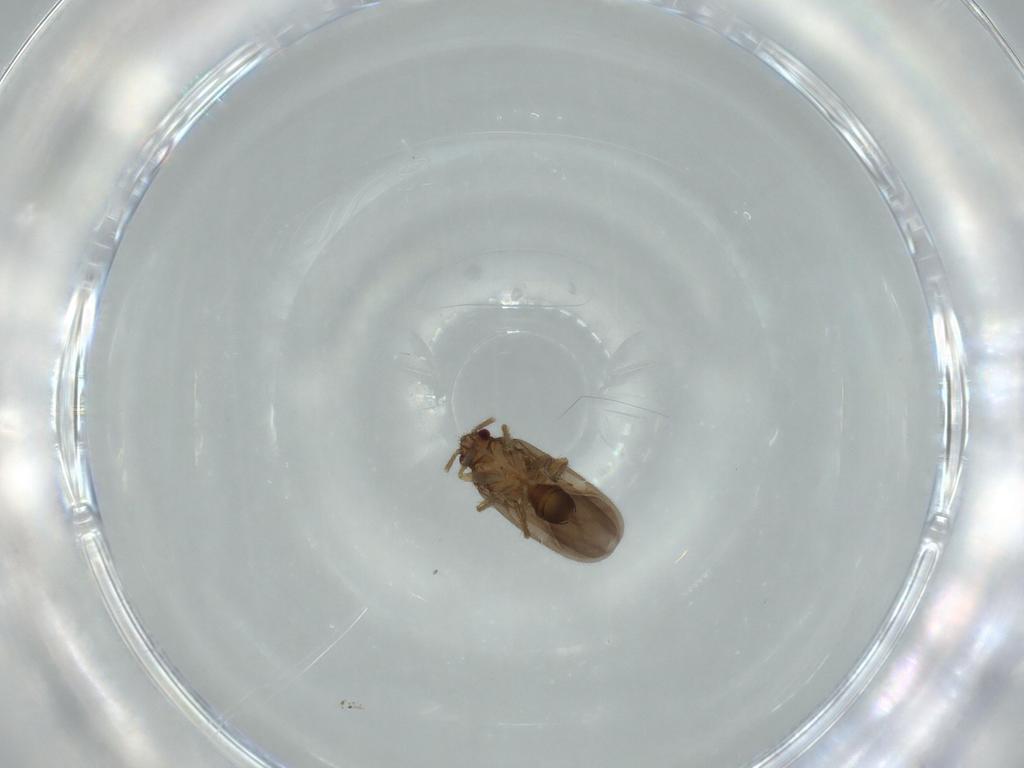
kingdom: Animalia
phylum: Arthropoda
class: Insecta
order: Hemiptera
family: Ceratocombidae
